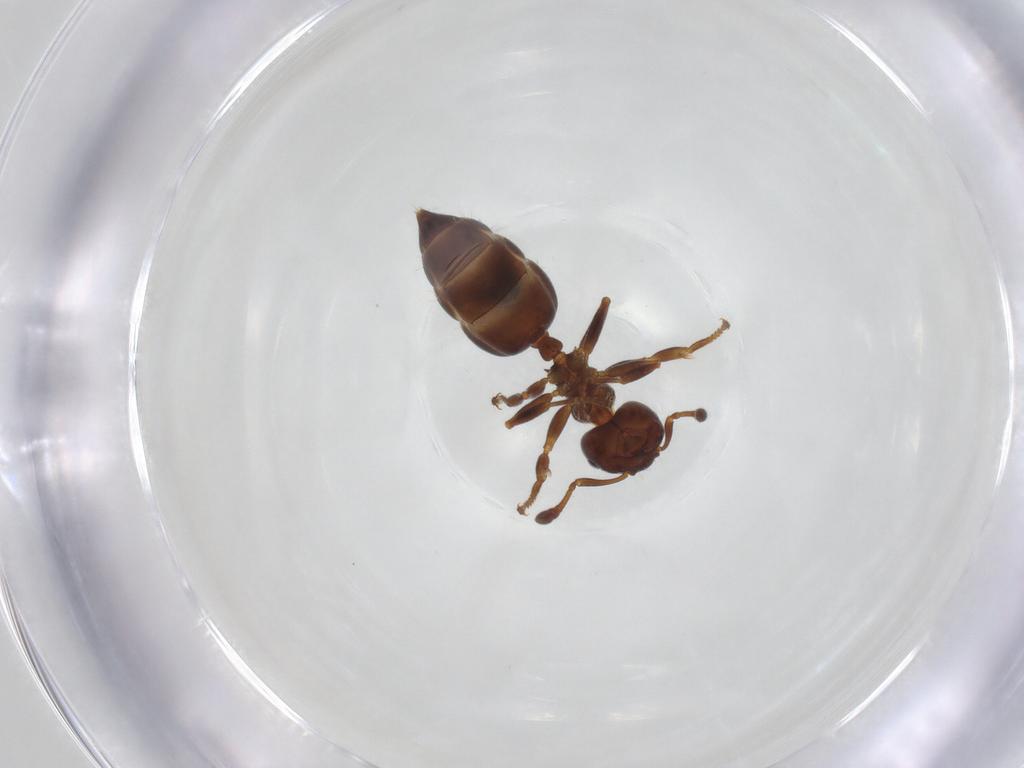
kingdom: Animalia
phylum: Arthropoda
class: Insecta
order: Hymenoptera
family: Formicidae
